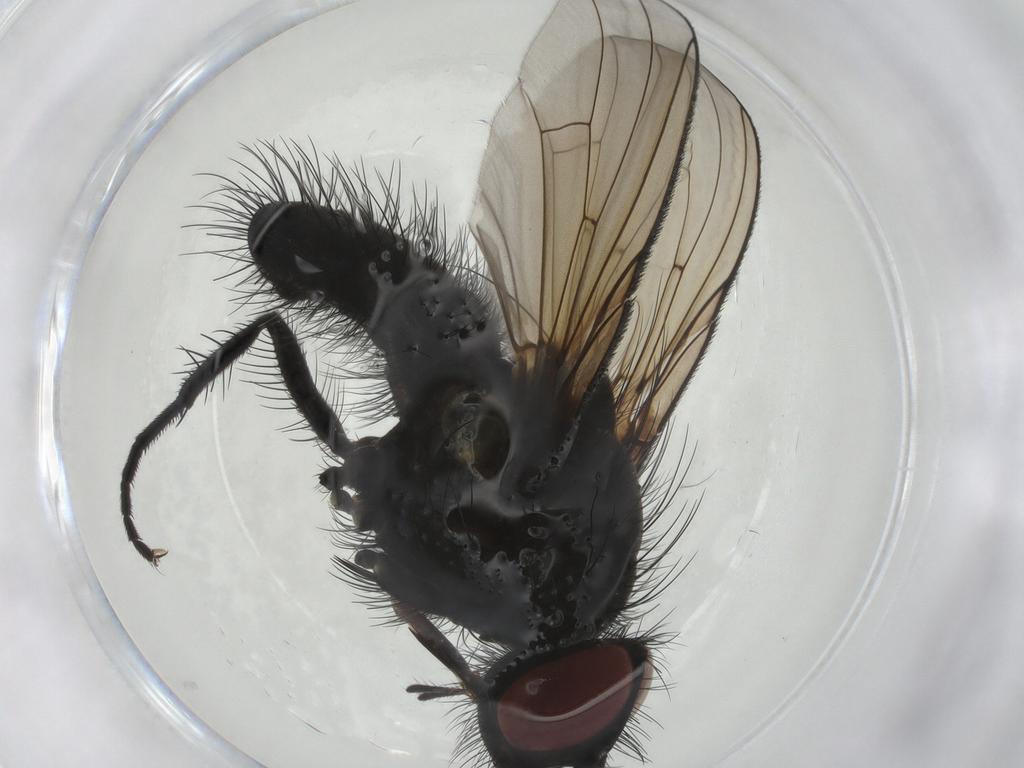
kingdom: Animalia
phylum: Arthropoda
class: Insecta
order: Diptera
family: Muscidae
